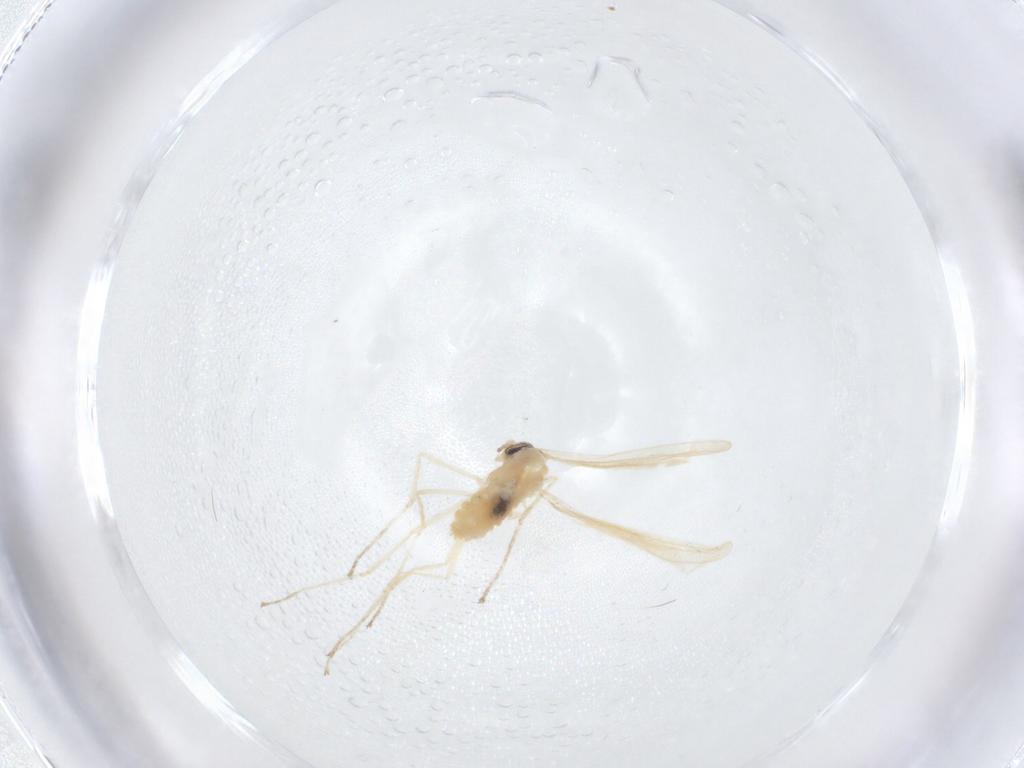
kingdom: Animalia
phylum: Arthropoda
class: Insecta
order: Diptera
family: Cecidomyiidae
